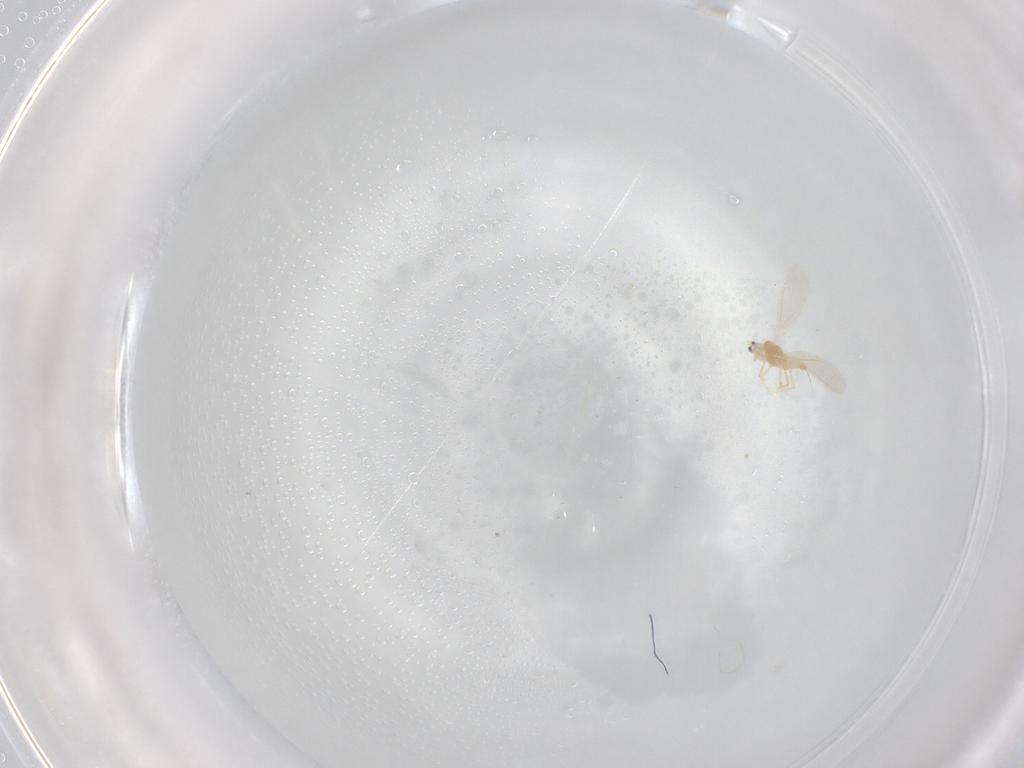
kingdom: Animalia
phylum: Arthropoda
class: Insecta
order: Hemiptera
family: Diaspididae
